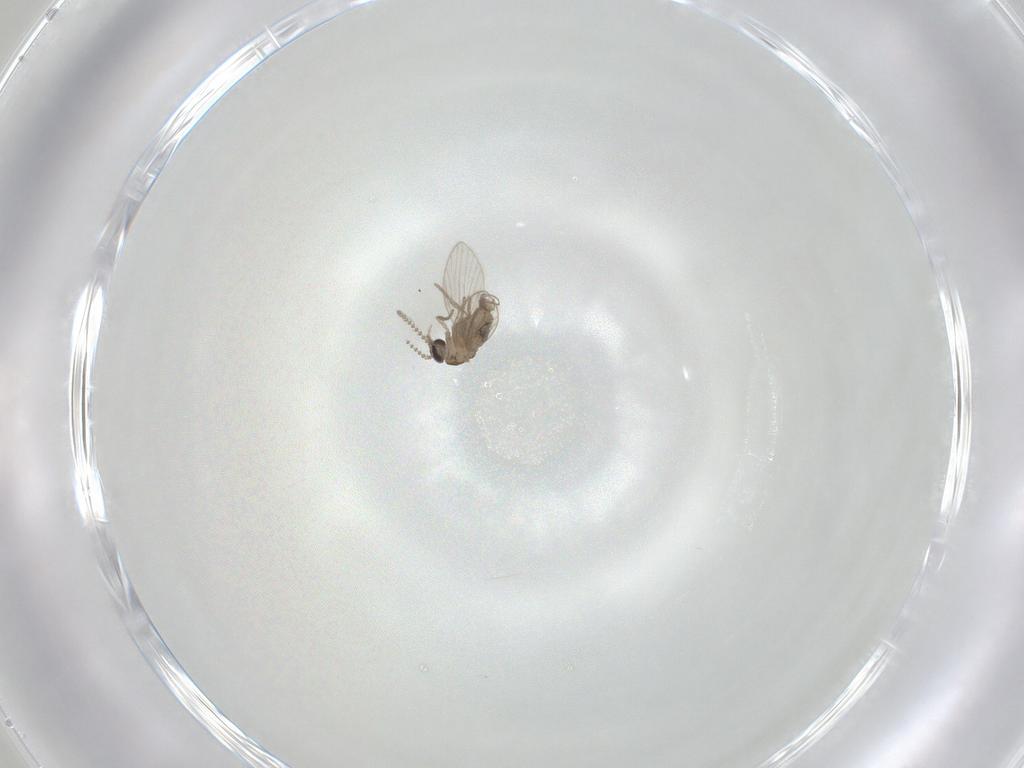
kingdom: Animalia
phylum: Arthropoda
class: Insecta
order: Diptera
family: Psychodidae
